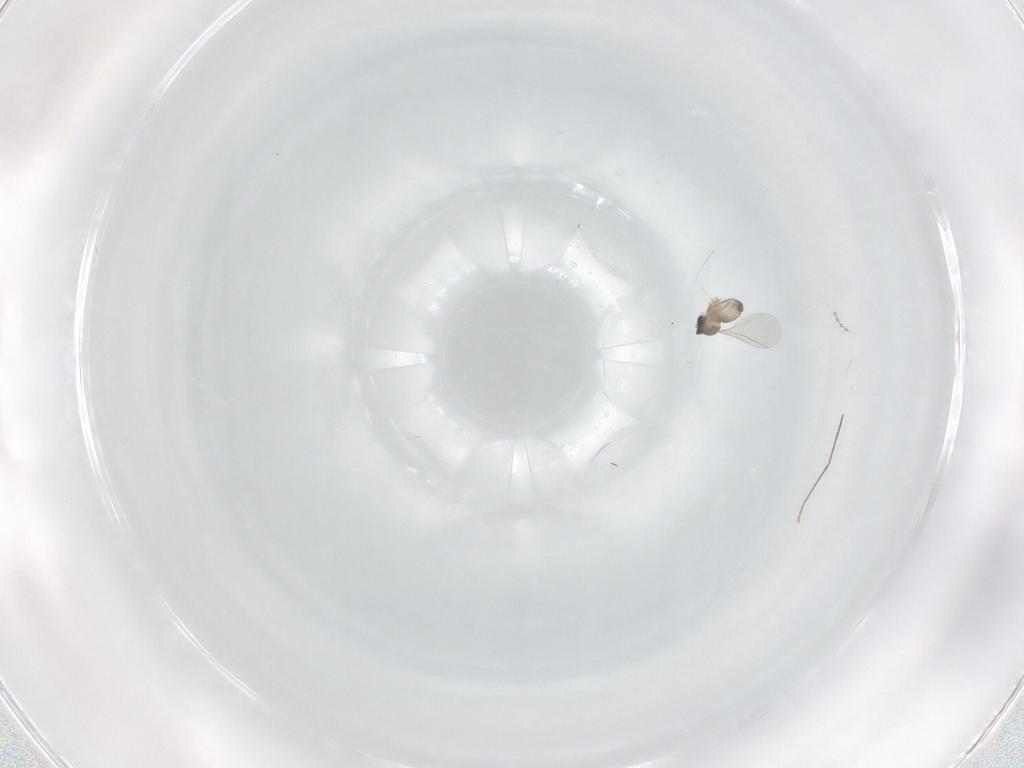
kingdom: Animalia
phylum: Arthropoda
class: Insecta
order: Diptera
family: Cecidomyiidae
